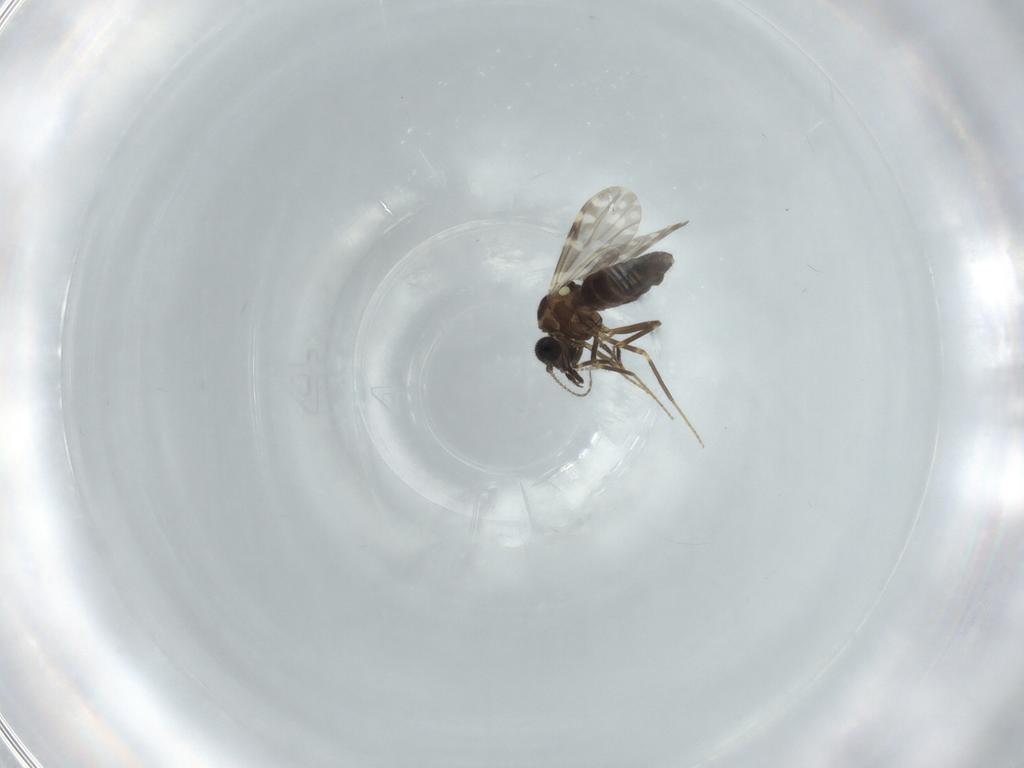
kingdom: Animalia
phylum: Arthropoda
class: Insecta
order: Diptera
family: Ceratopogonidae
